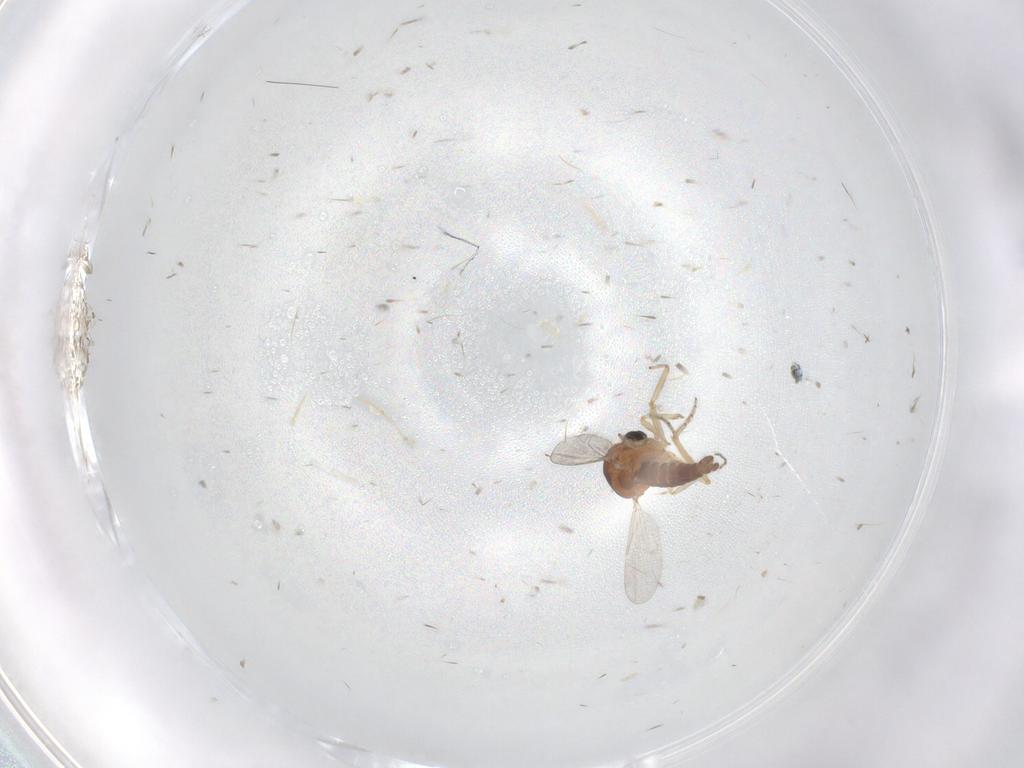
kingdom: Animalia
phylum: Arthropoda
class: Insecta
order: Diptera
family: Ceratopogonidae
